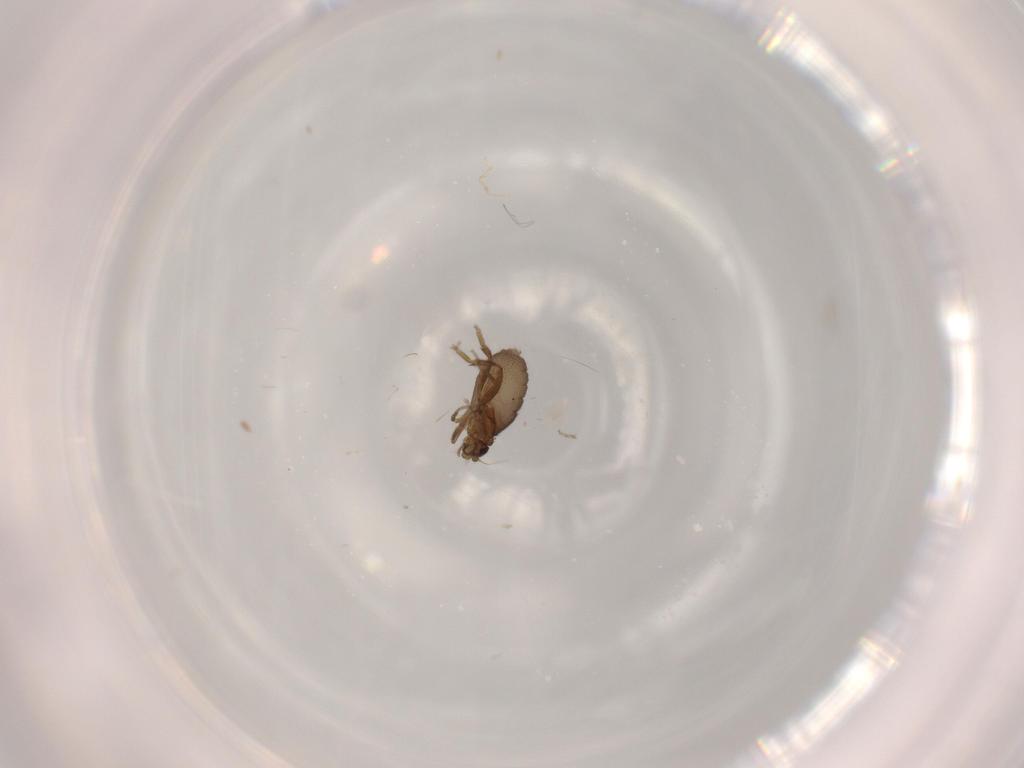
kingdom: Animalia
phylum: Arthropoda
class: Insecta
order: Diptera
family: Phoridae
